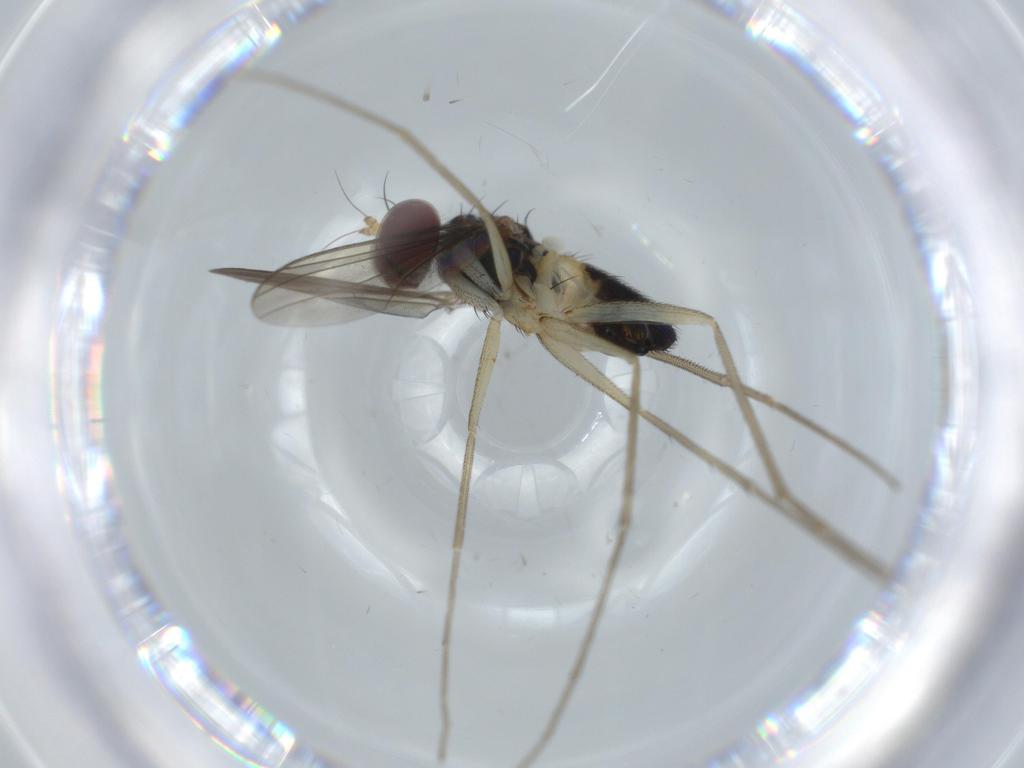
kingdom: Animalia
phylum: Arthropoda
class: Insecta
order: Diptera
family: Dolichopodidae
